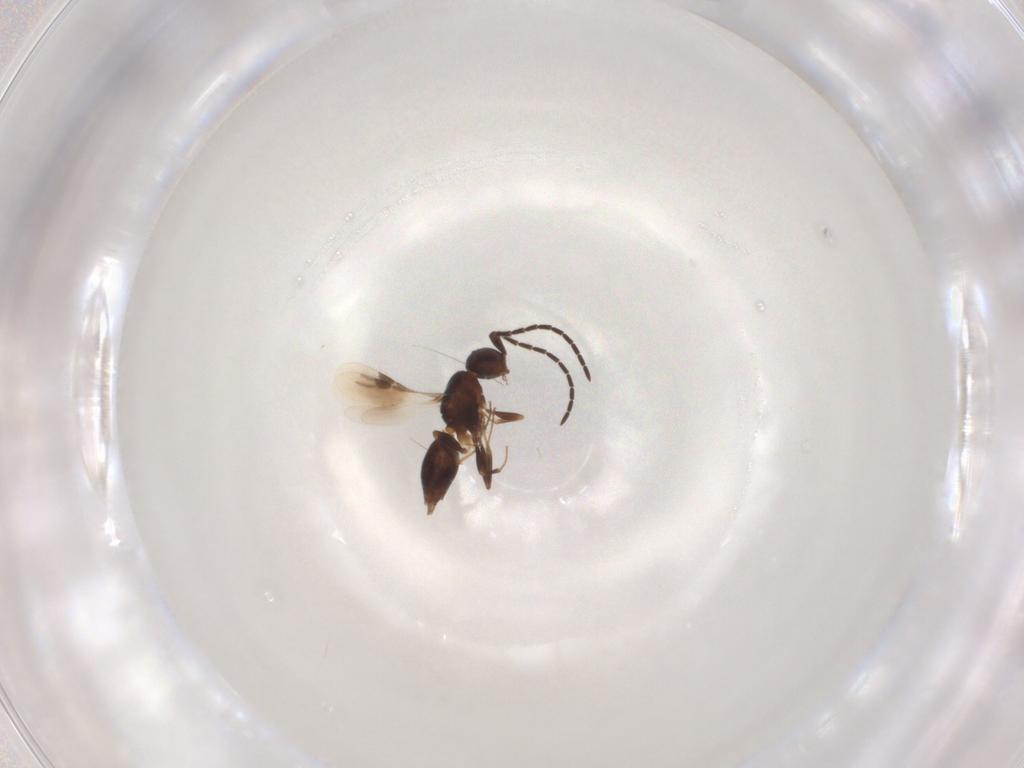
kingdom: Animalia
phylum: Arthropoda
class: Insecta
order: Hymenoptera
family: Megaspilidae
